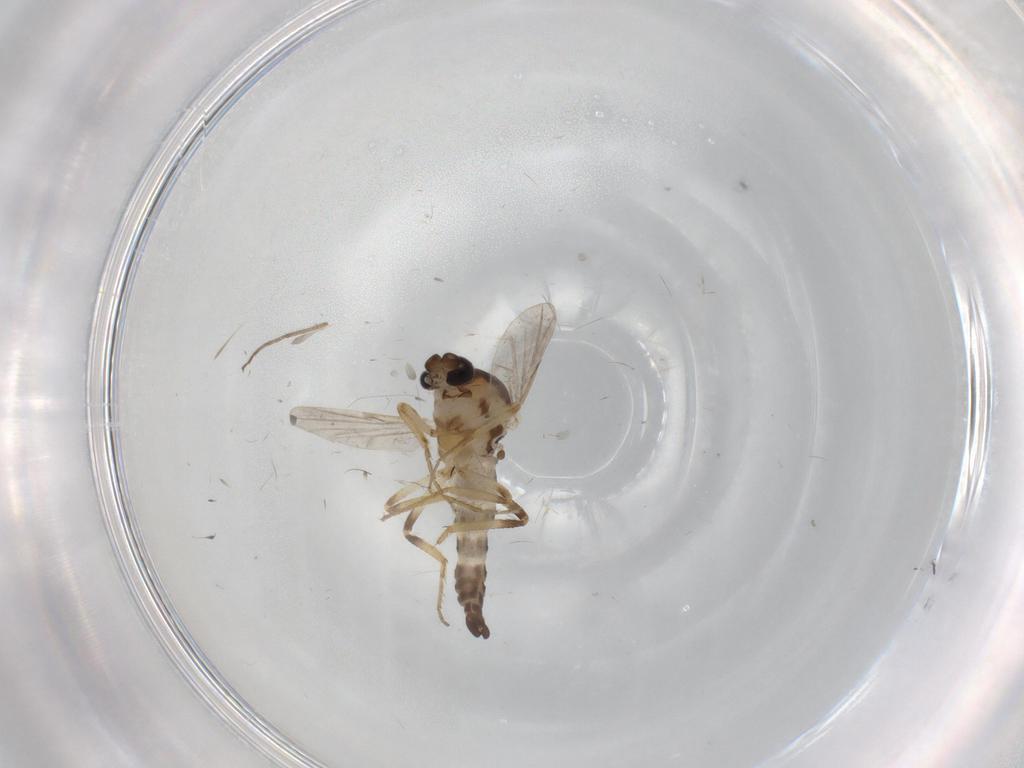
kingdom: Animalia
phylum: Arthropoda
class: Insecta
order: Diptera
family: Ceratopogonidae
